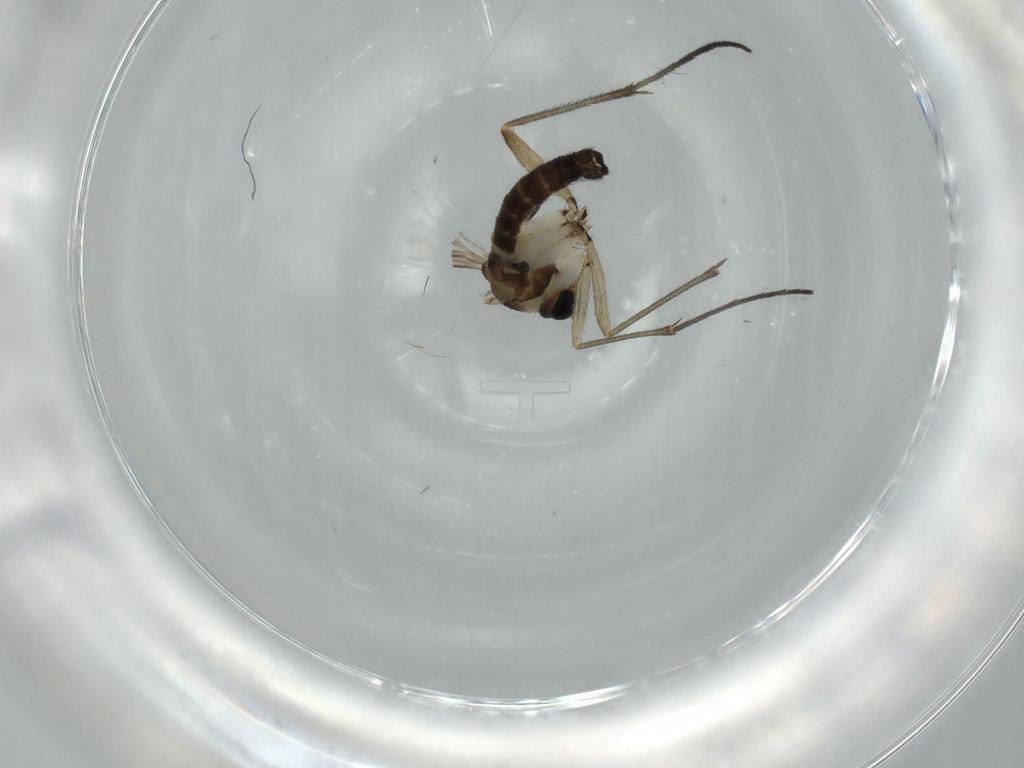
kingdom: Animalia
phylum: Arthropoda
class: Insecta
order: Diptera
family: Sciaridae
